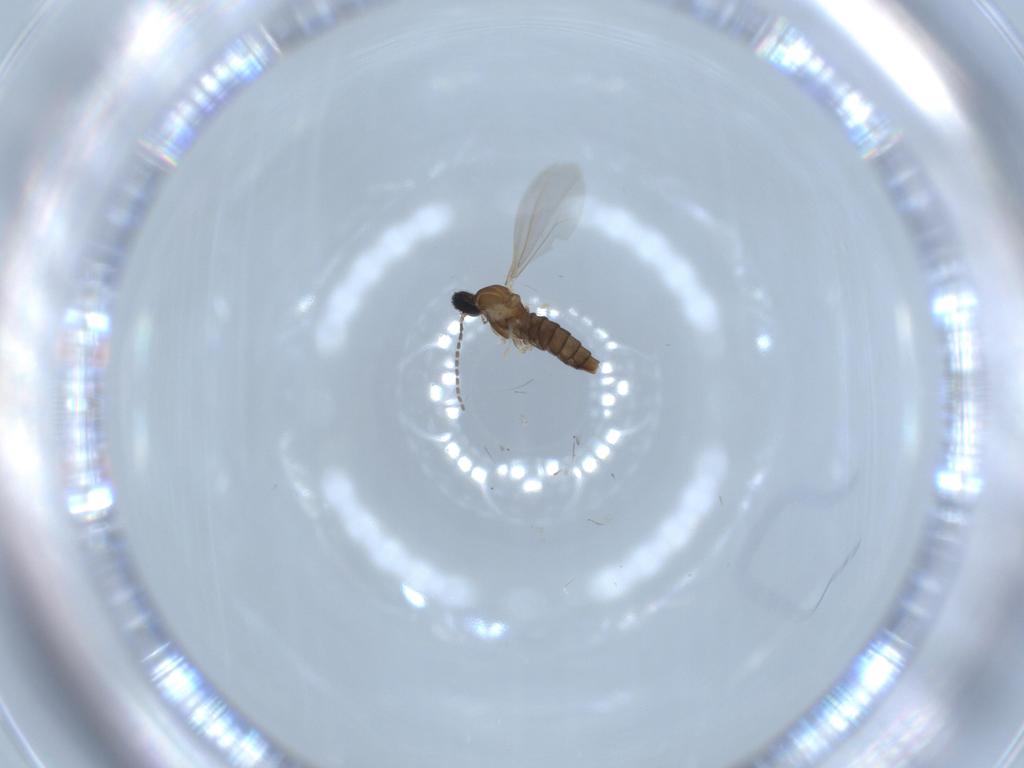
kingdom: Animalia
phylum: Arthropoda
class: Insecta
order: Diptera
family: Cecidomyiidae
